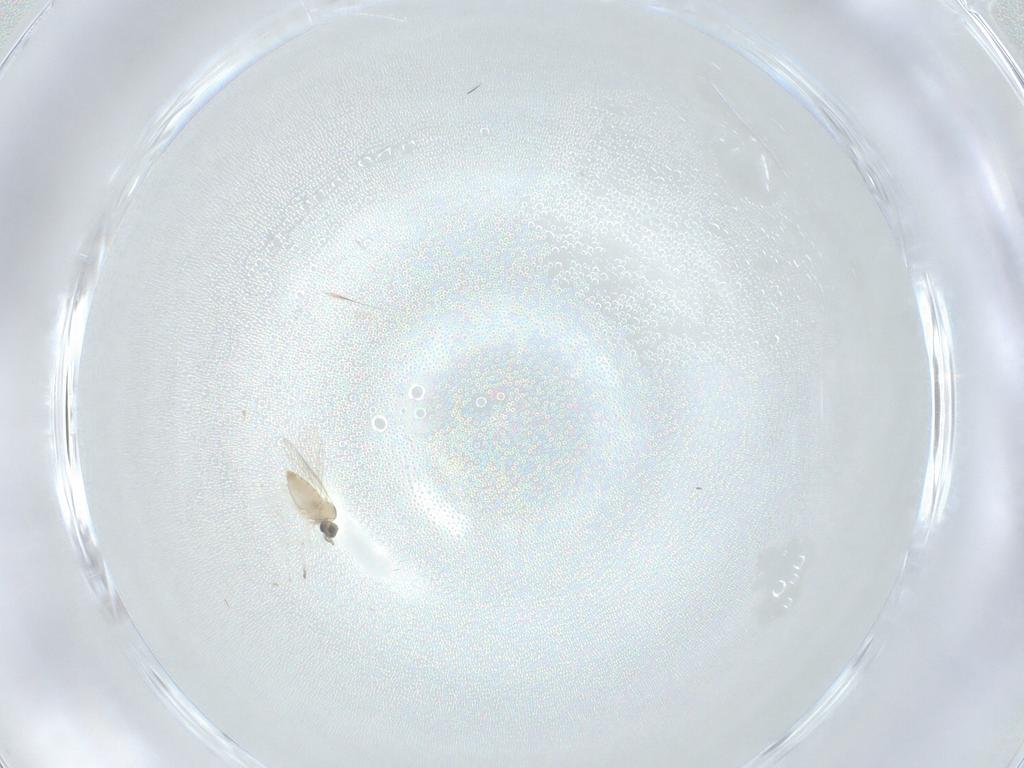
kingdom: Animalia
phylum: Arthropoda
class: Insecta
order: Diptera
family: Cecidomyiidae
